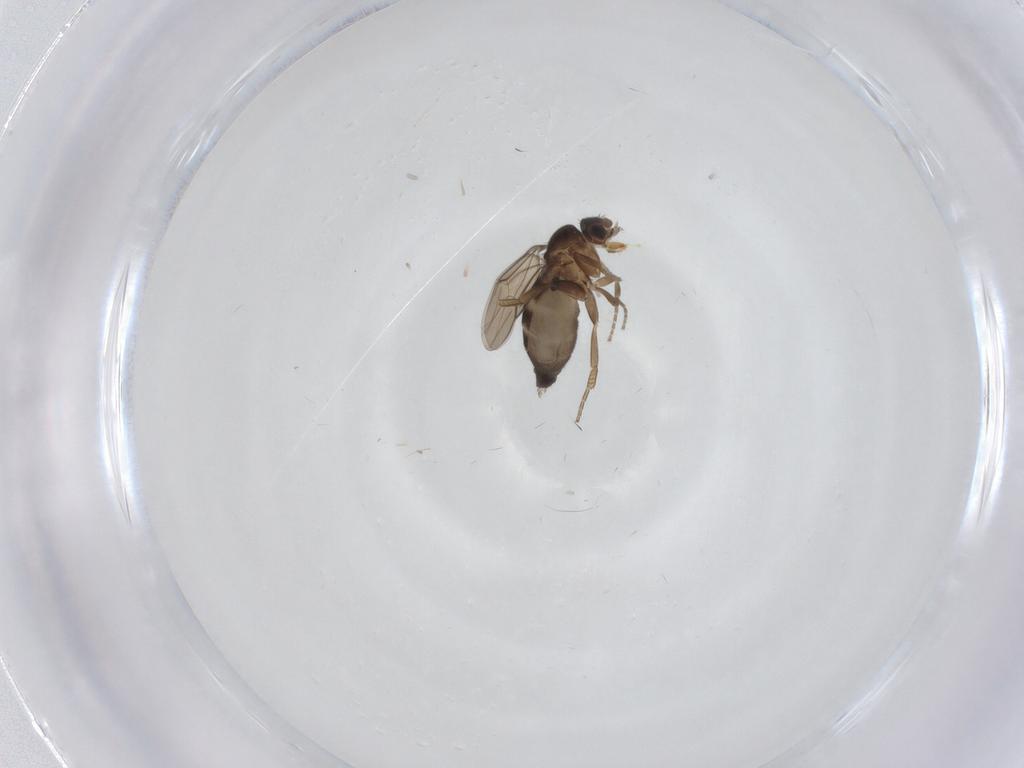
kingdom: Animalia
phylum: Arthropoda
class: Insecta
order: Diptera
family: Phoridae
